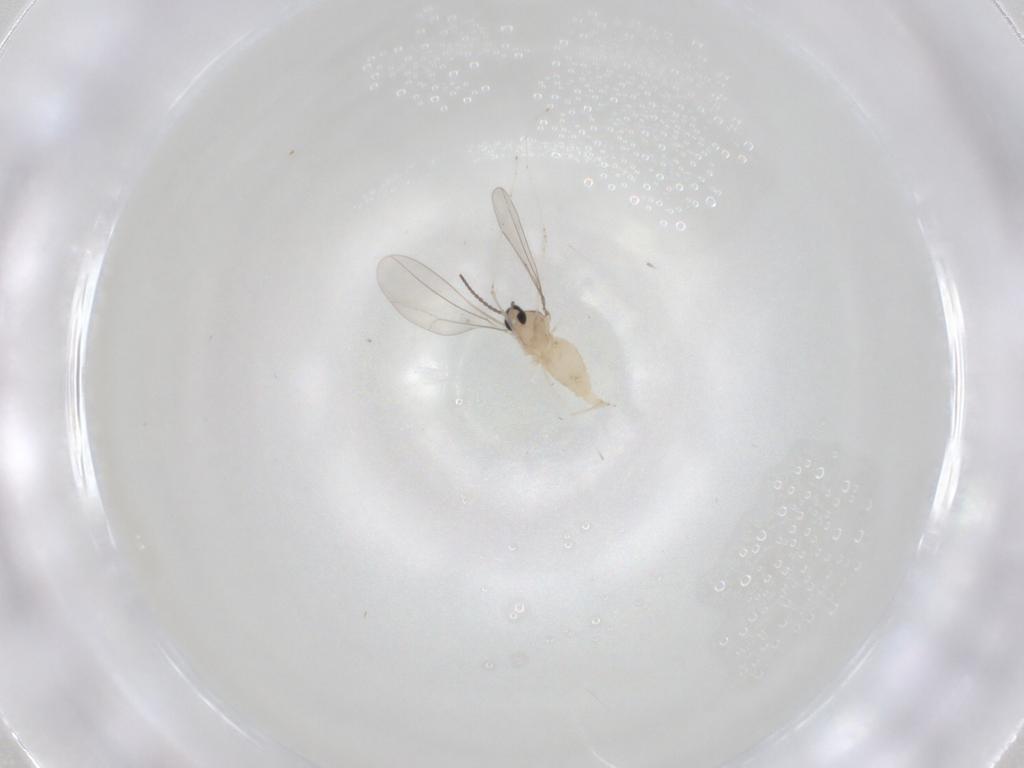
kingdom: Animalia
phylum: Arthropoda
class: Insecta
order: Diptera
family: Cecidomyiidae
